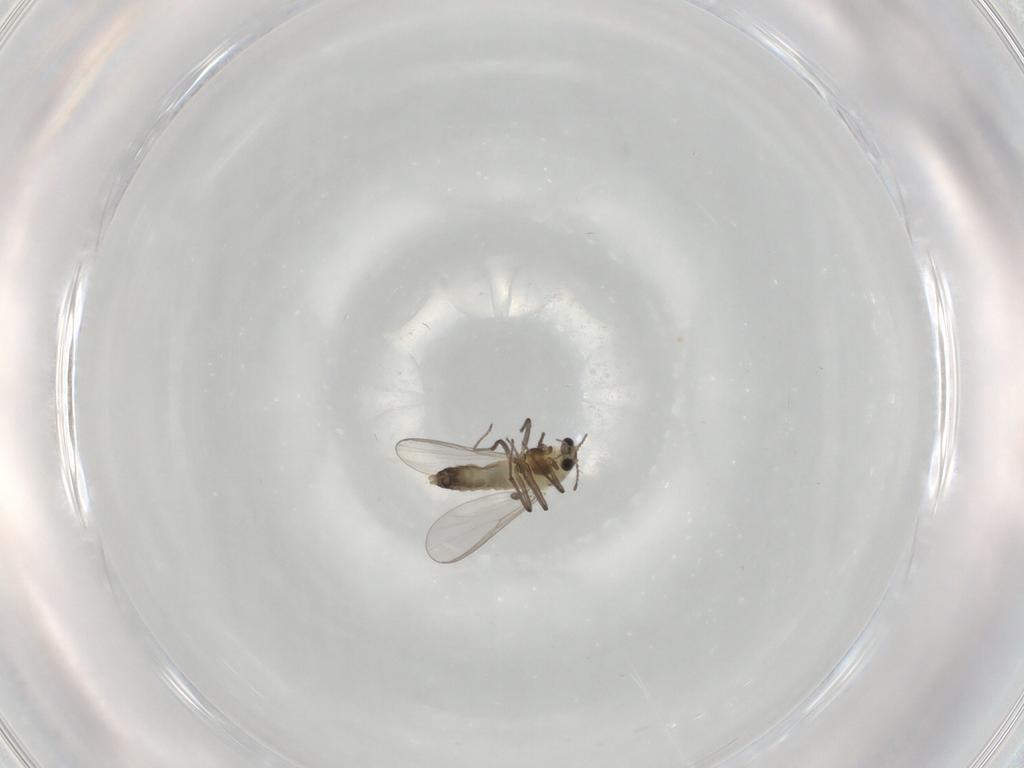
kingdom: Animalia
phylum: Arthropoda
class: Insecta
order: Diptera
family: Chironomidae
